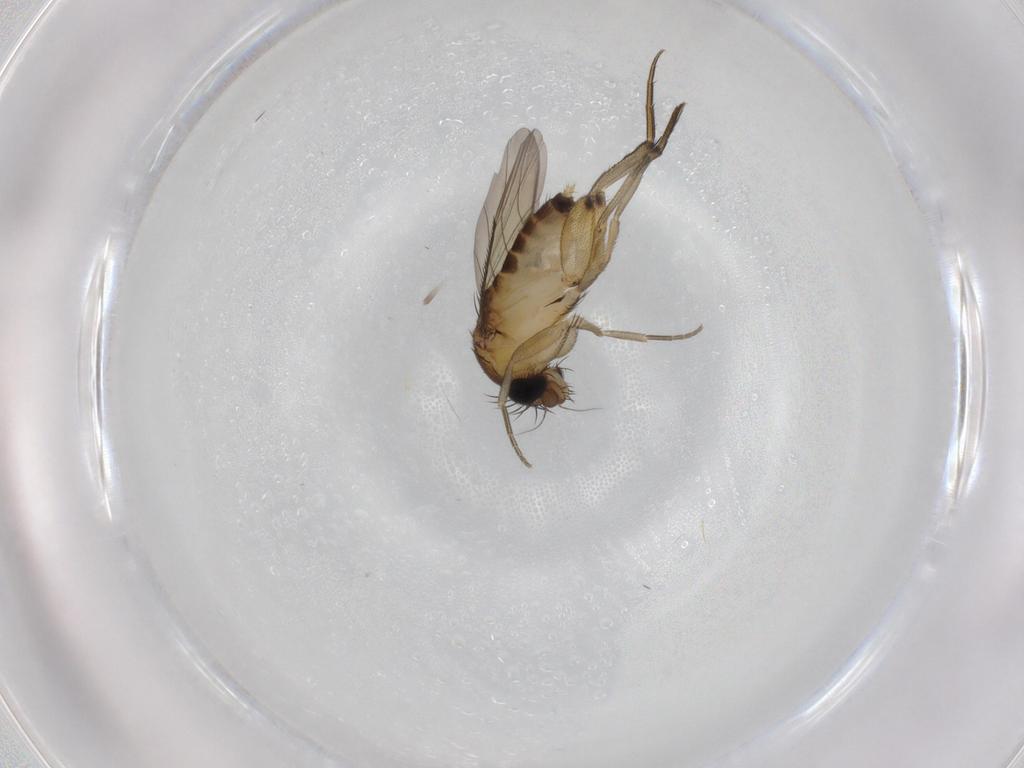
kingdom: Animalia
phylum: Arthropoda
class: Insecta
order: Diptera
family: Phoridae
